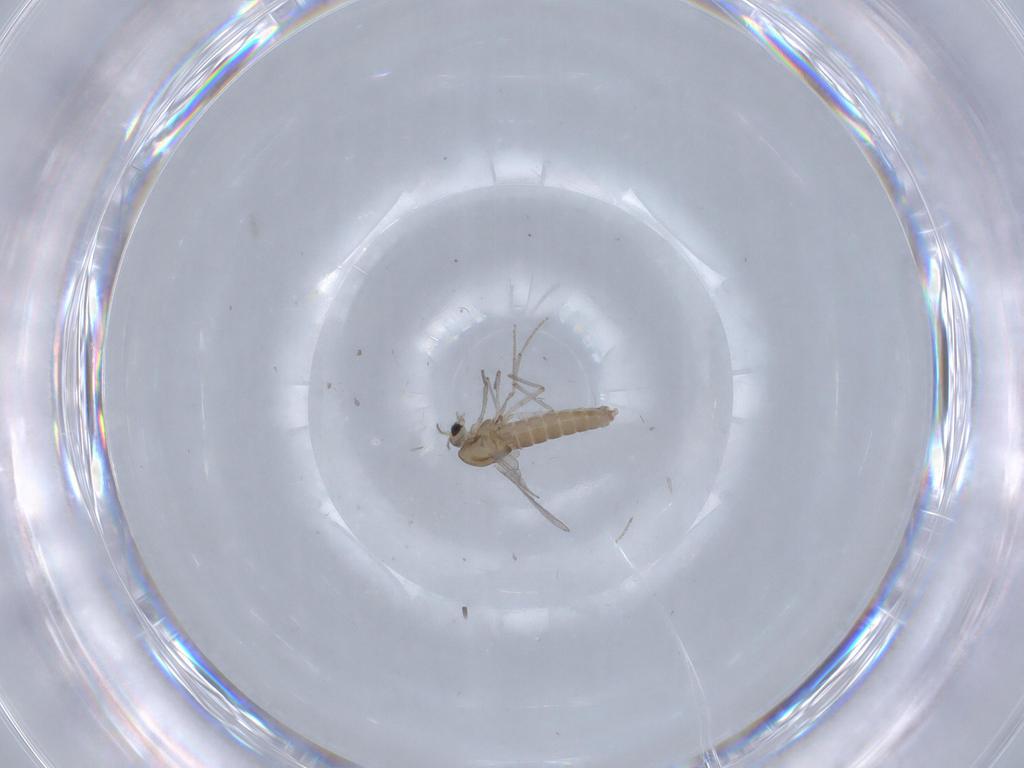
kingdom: Animalia
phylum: Arthropoda
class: Insecta
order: Diptera
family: Chironomidae
